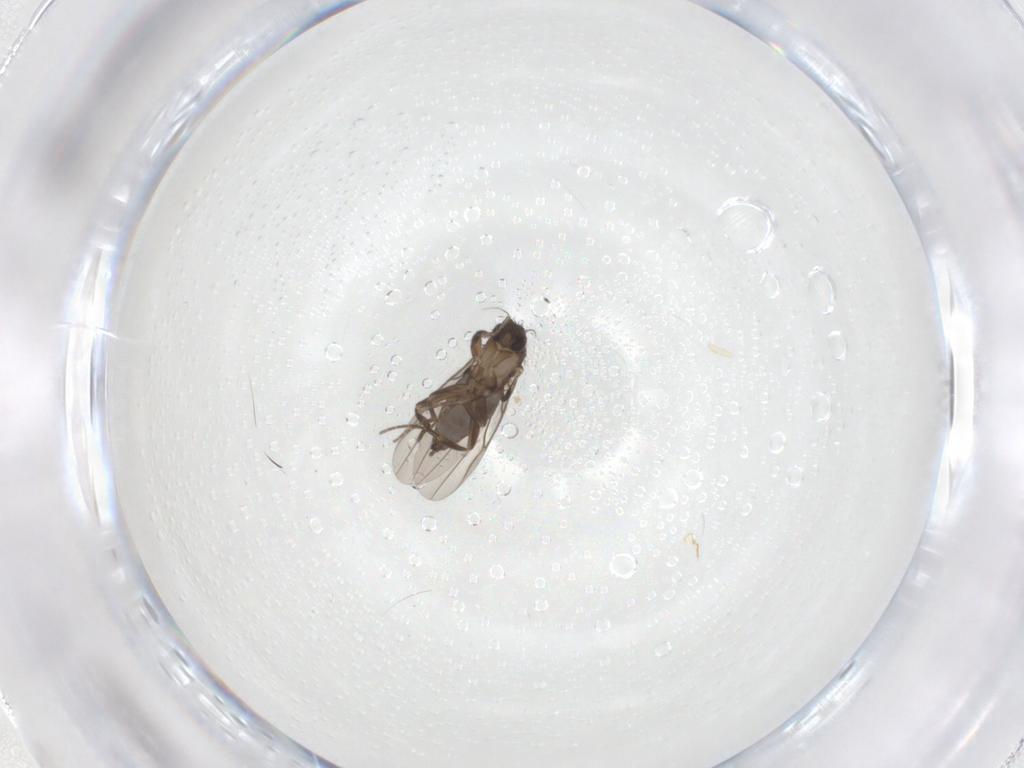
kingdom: Animalia
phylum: Arthropoda
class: Insecta
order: Diptera
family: Phoridae
